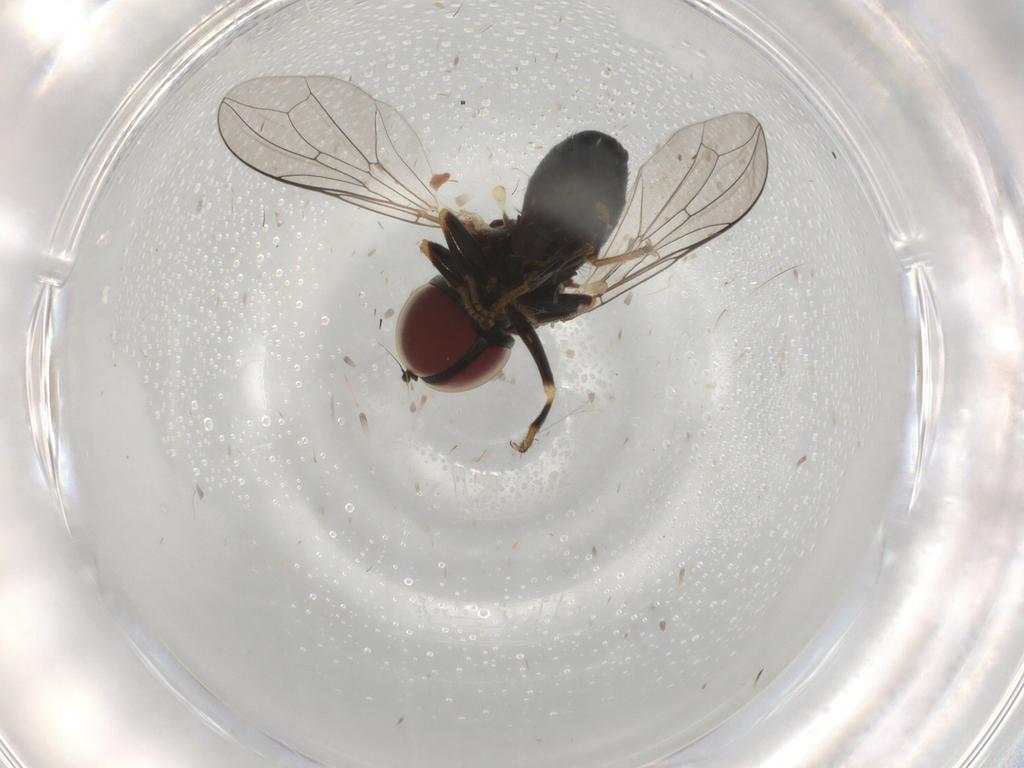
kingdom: Animalia
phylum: Arthropoda
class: Insecta
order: Diptera
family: Pipunculidae
